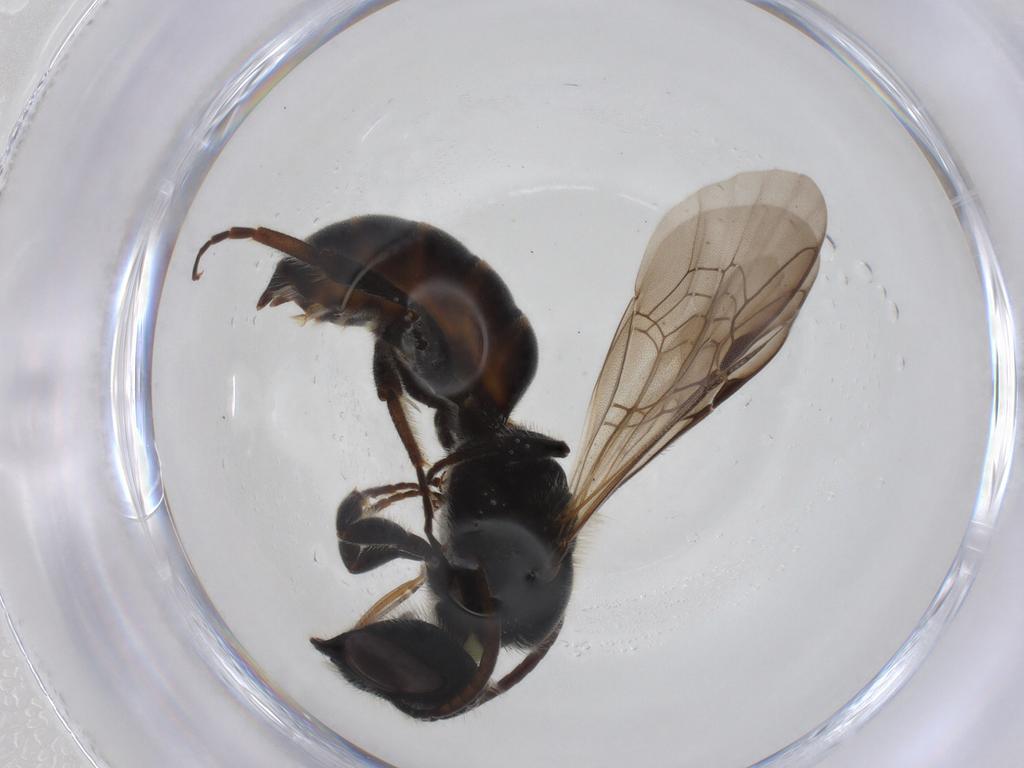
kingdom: Animalia
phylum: Arthropoda
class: Insecta
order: Hymenoptera
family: Megachilidae
